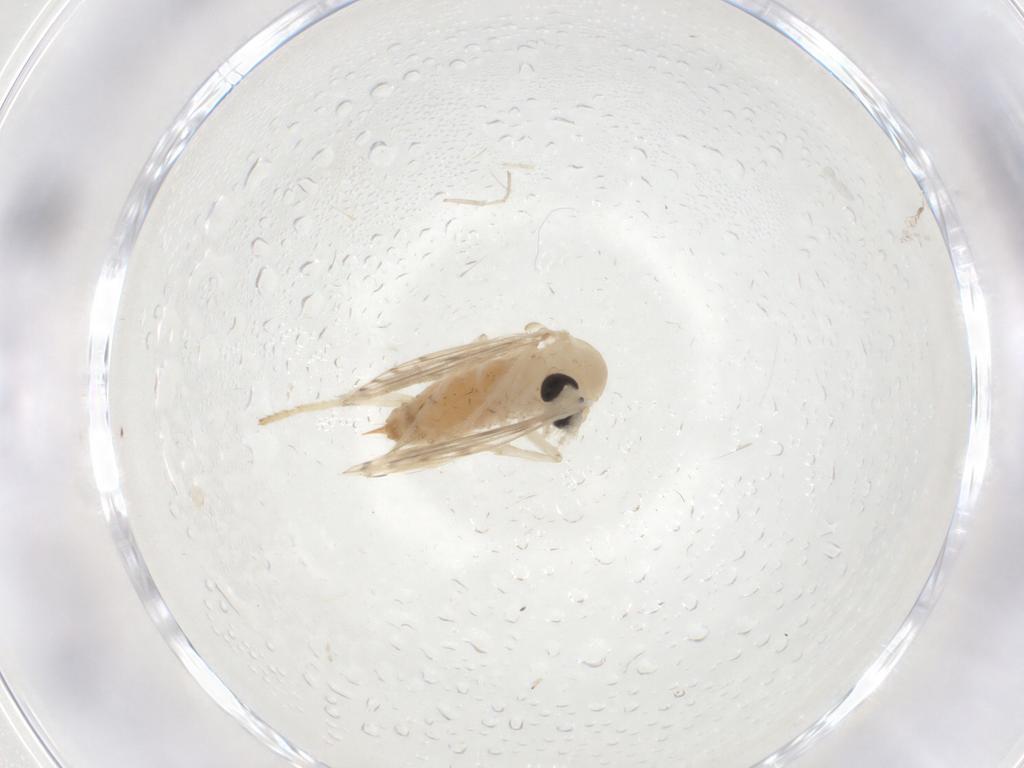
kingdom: Animalia
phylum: Arthropoda
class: Insecta
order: Diptera
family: Psychodidae
